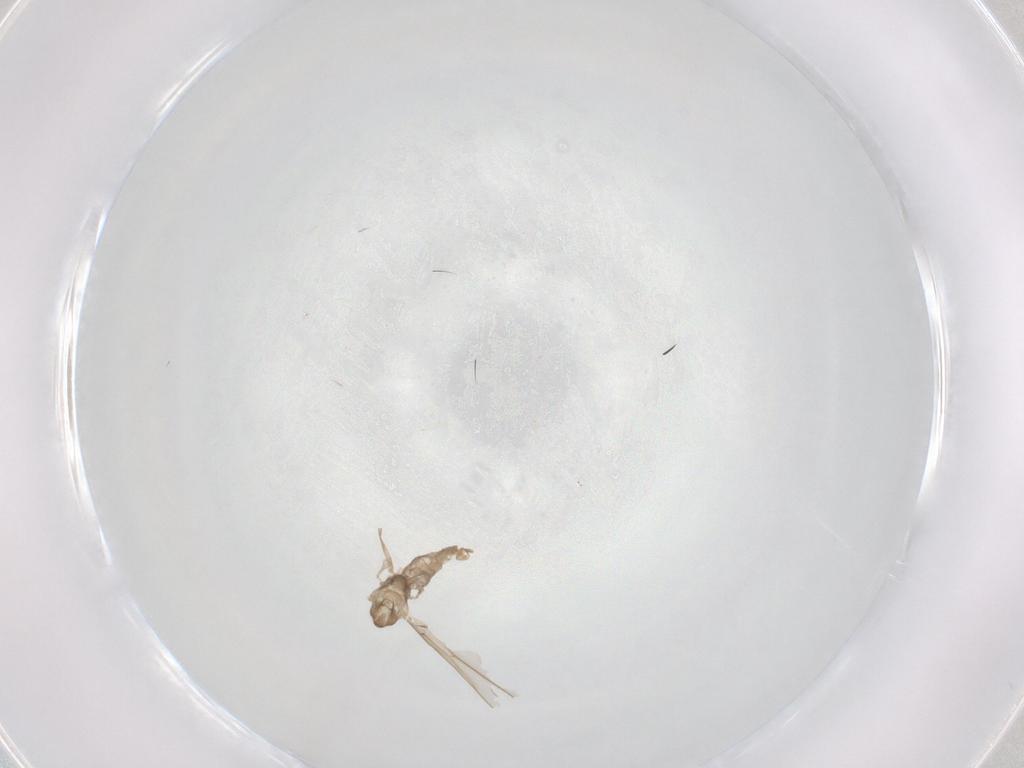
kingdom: Animalia
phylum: Arthropoda
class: Insecta
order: Diptera
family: Cecidomyiidae
